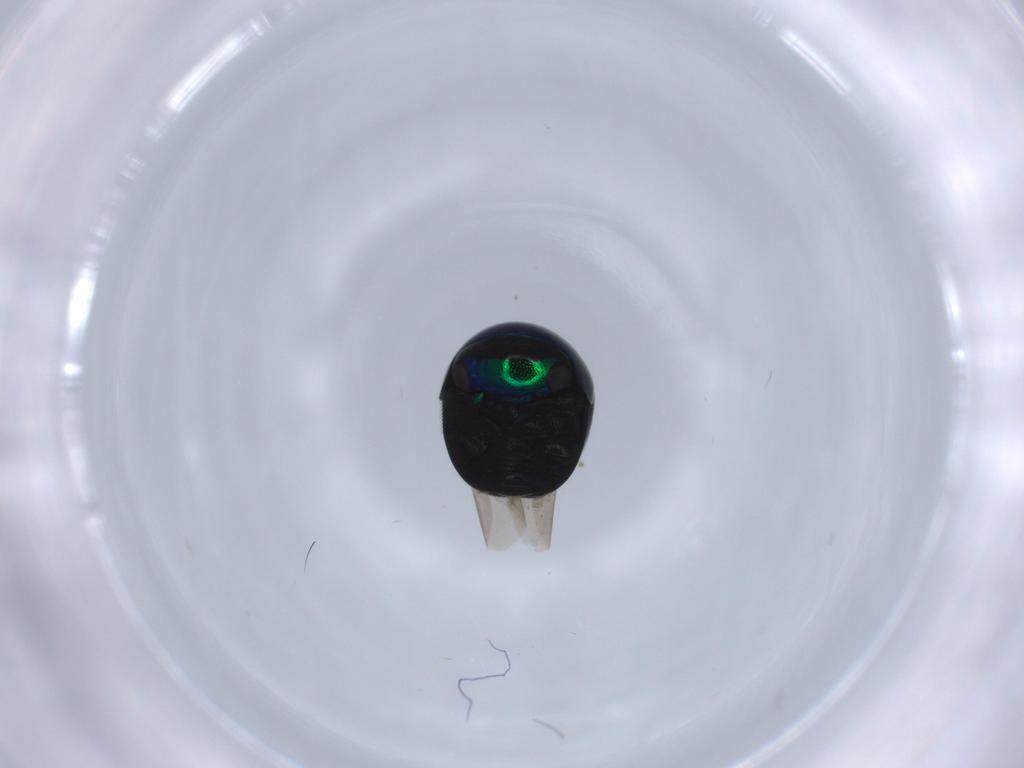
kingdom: Animalia
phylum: Arthropoda
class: Insecta
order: Coleoptera
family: Cybocephalidae
